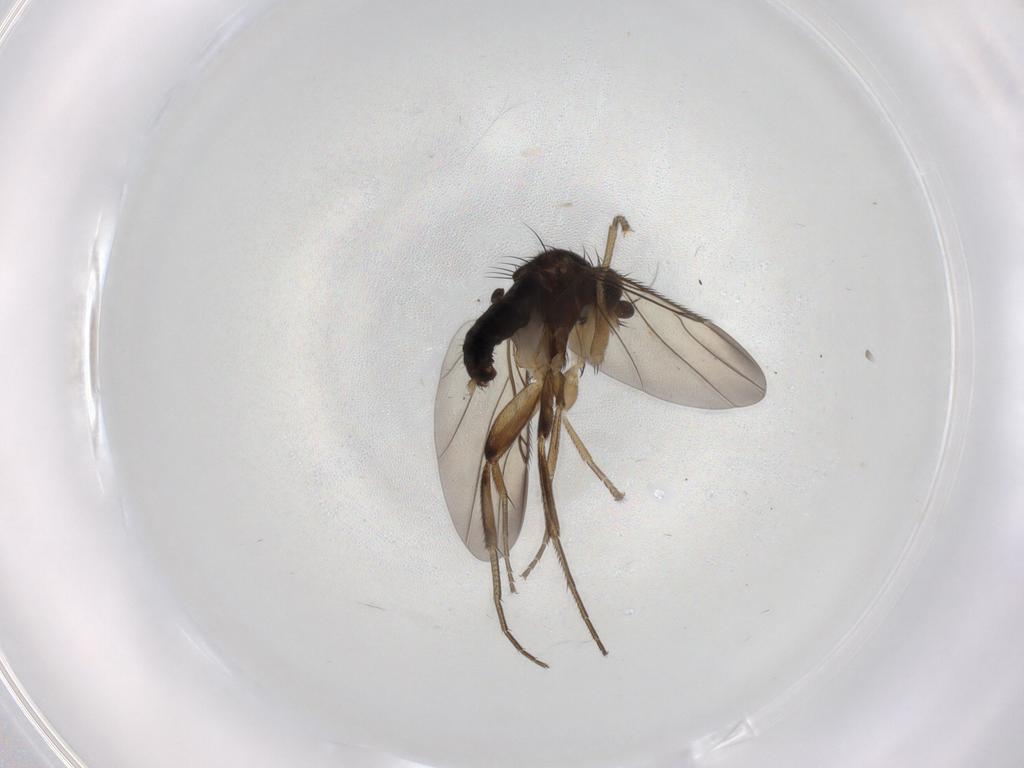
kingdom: Animalia
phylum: Arthropoda
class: Insecta
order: Diptera
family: Phoridae
